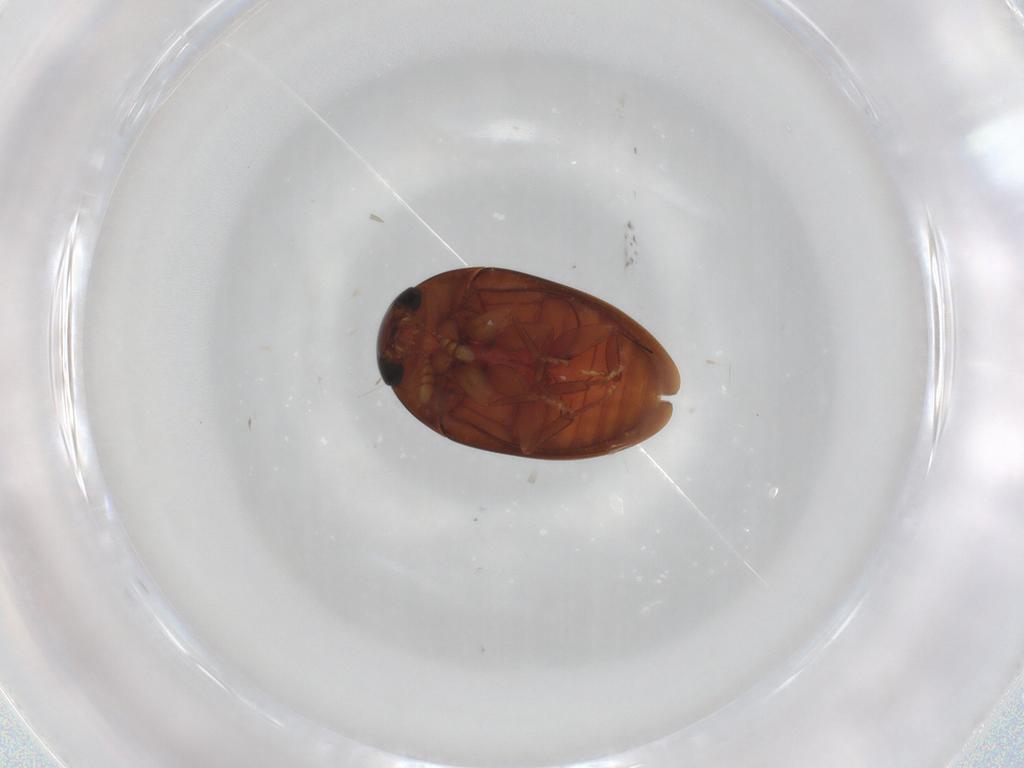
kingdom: Animalia
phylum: Arthropoda
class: Insecta
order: Coleoptera
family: Phalacridae
